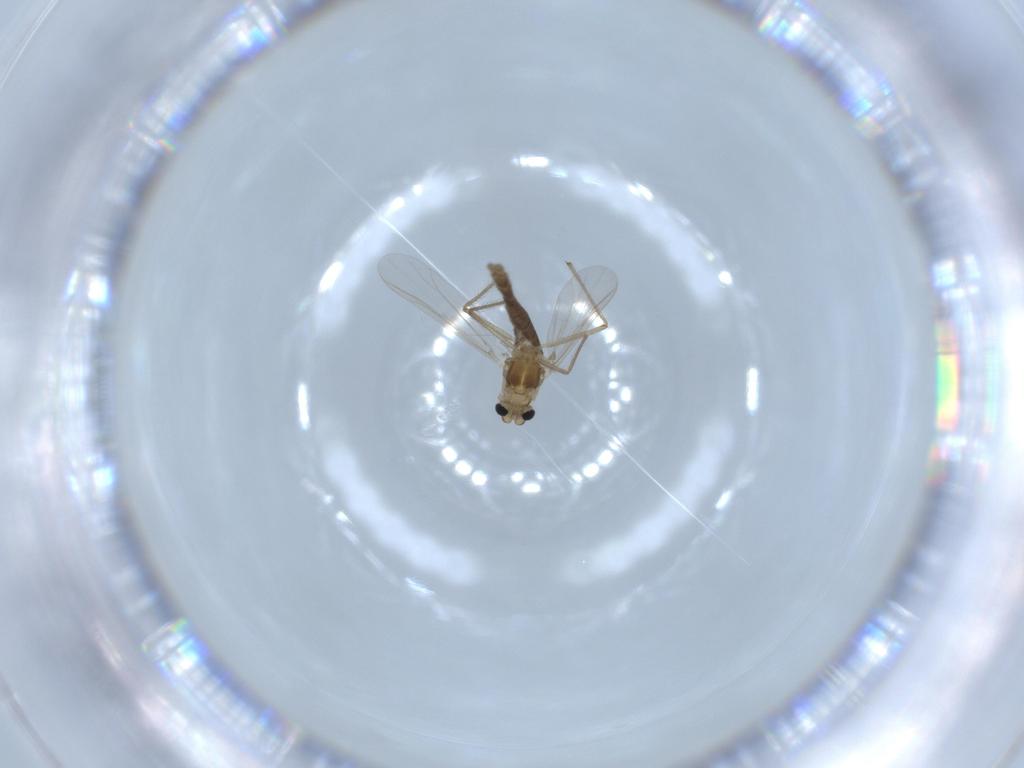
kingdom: Animalia
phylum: Arthropoda
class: Insecta
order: Diptera
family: Chironomidae
